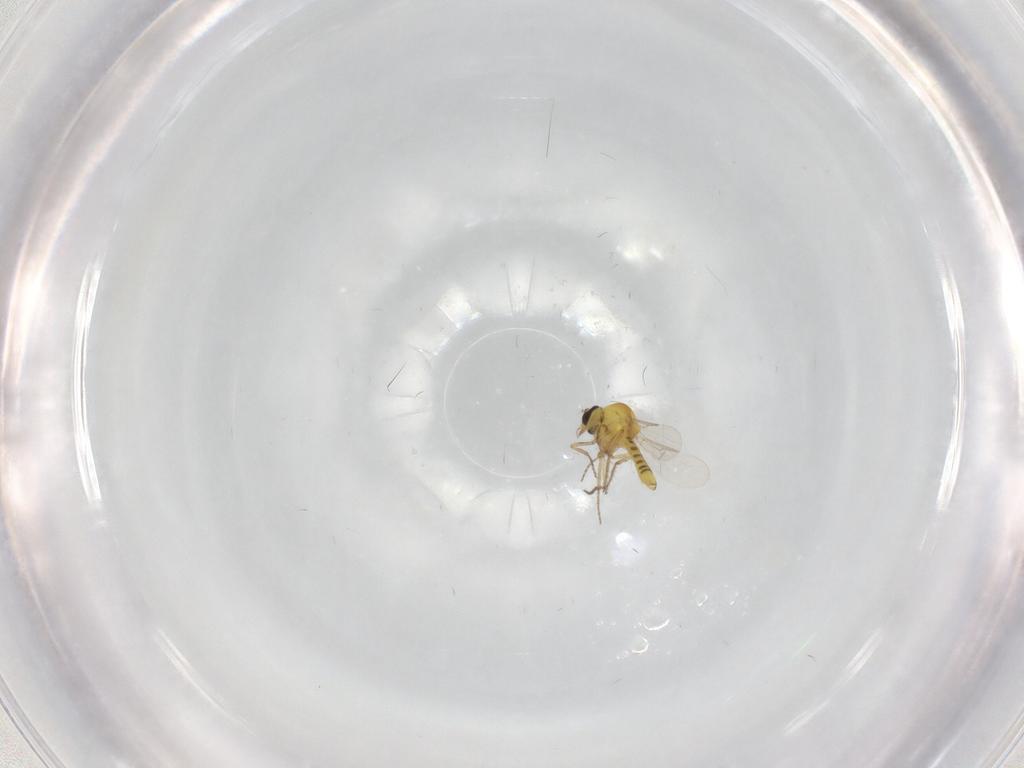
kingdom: Animalia
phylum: Arthropoda
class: Insecta
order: Diptera
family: Ceratopogonidae
